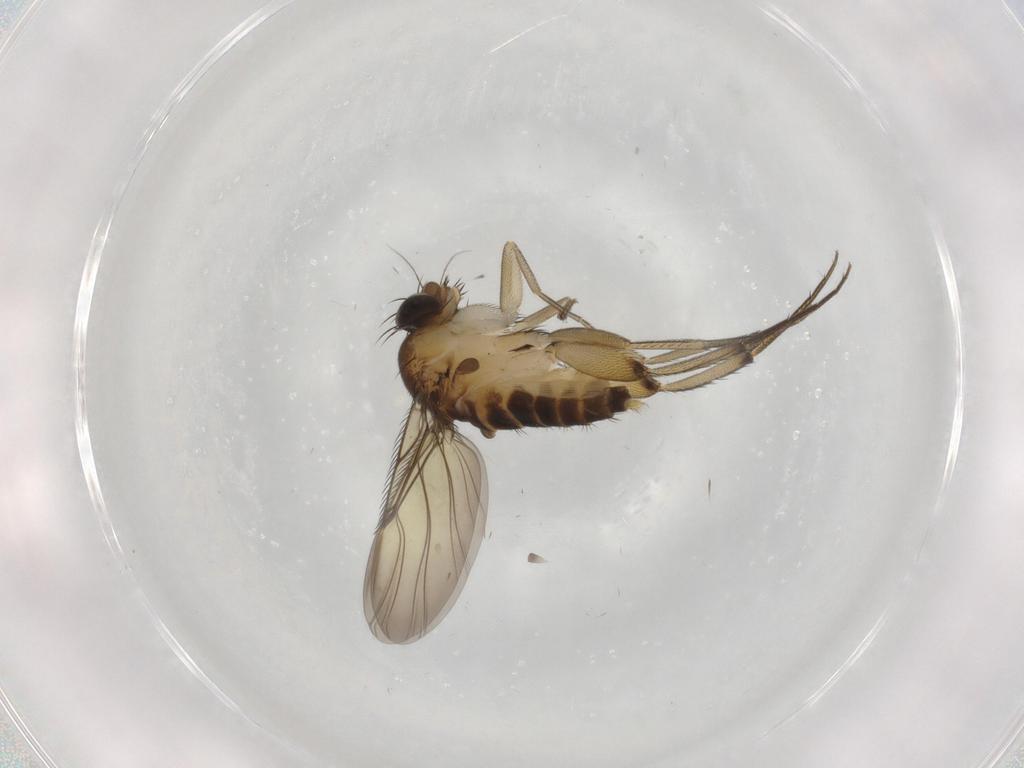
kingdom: Animalia
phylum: Arthropoda
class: Insecta
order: Diptera
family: Phoridae
